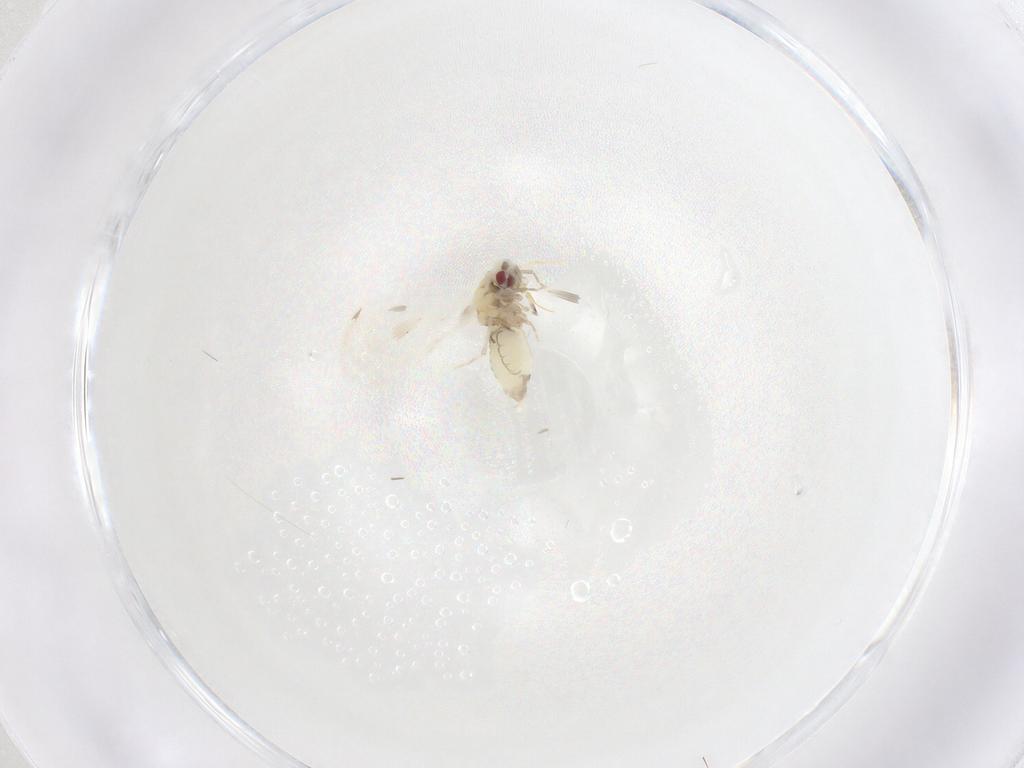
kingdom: Animalia
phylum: Arthropoda
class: Insecta
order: Hemiptera
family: Aleyrodidae
